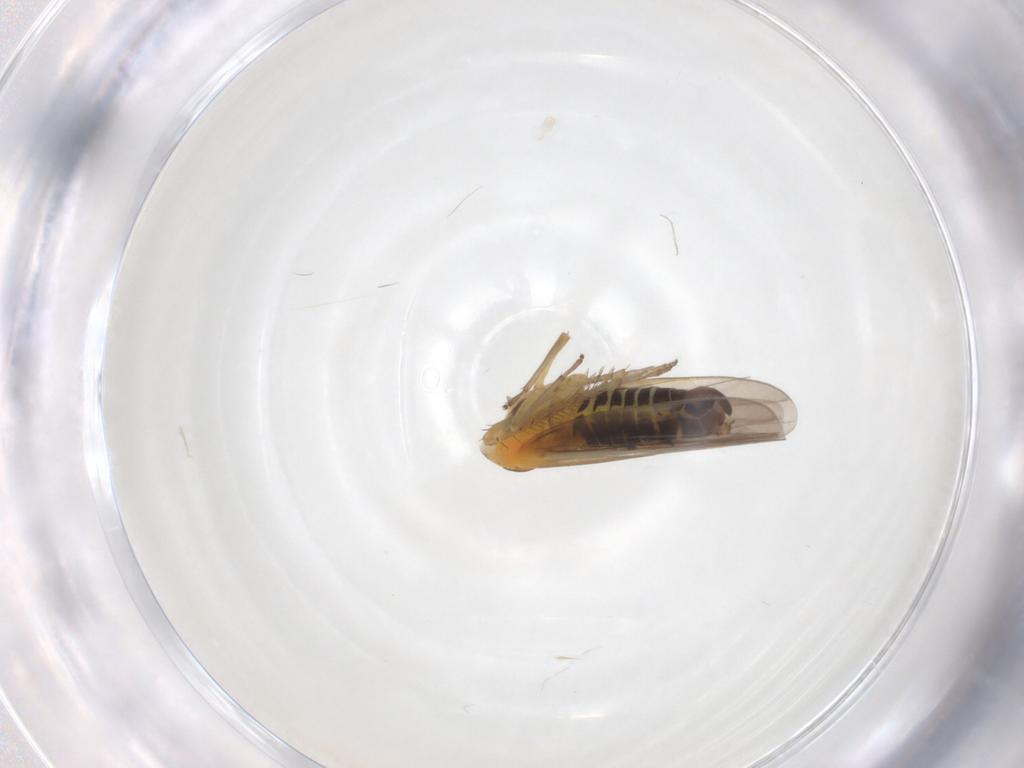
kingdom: Animalia
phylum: Arthropoda
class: Insecta
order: Hemiptera
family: Cicadellidae
